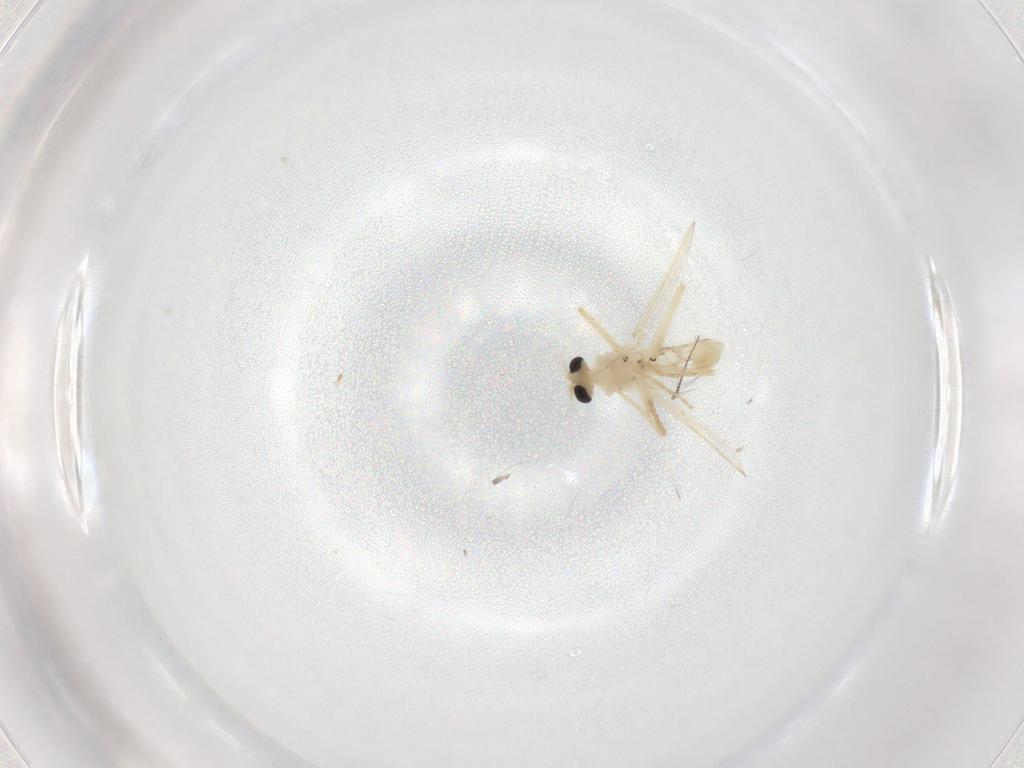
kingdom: Animalia
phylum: Arthropoda
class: Insecta
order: Diptera
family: Chironomidae
